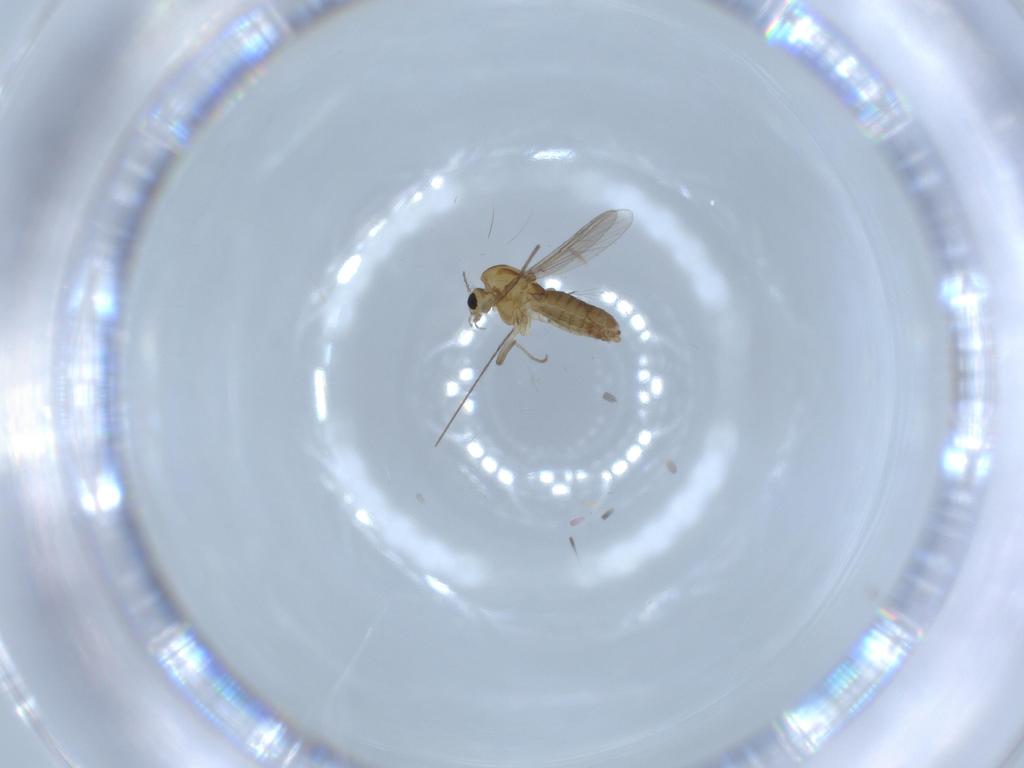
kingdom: Animalia
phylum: Arthropoda
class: Insecta
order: Diptera
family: Chironomidae
